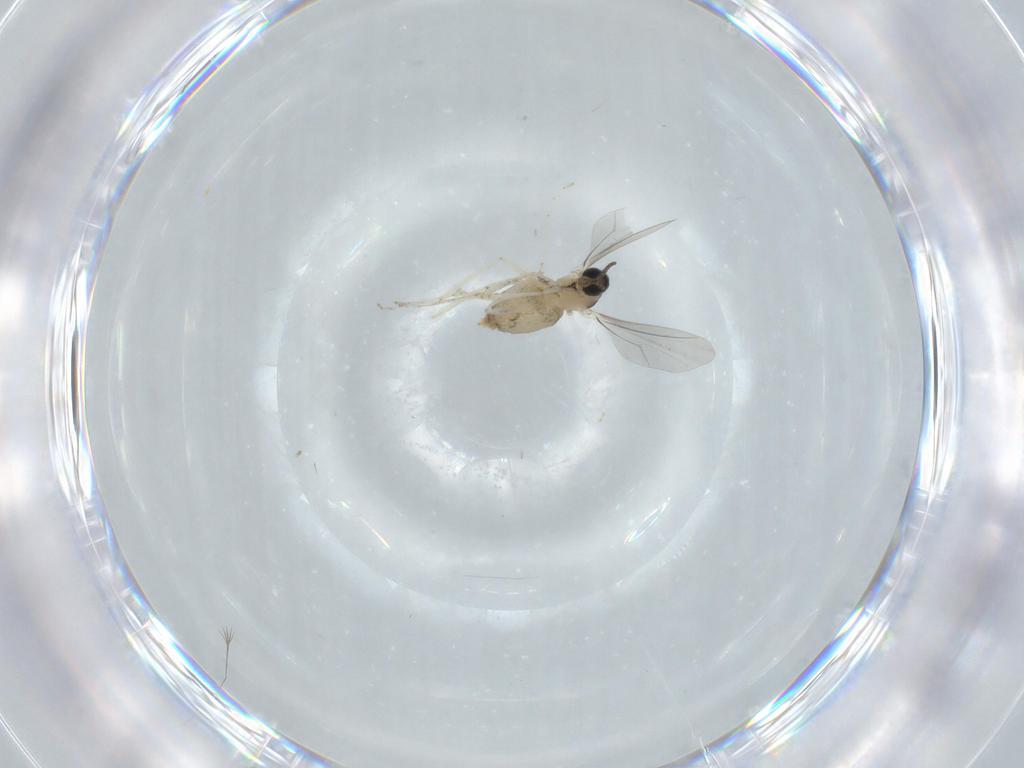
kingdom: Animalia
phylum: Arthropoda
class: Insecta
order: Diptera
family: Cecidomyiidae
